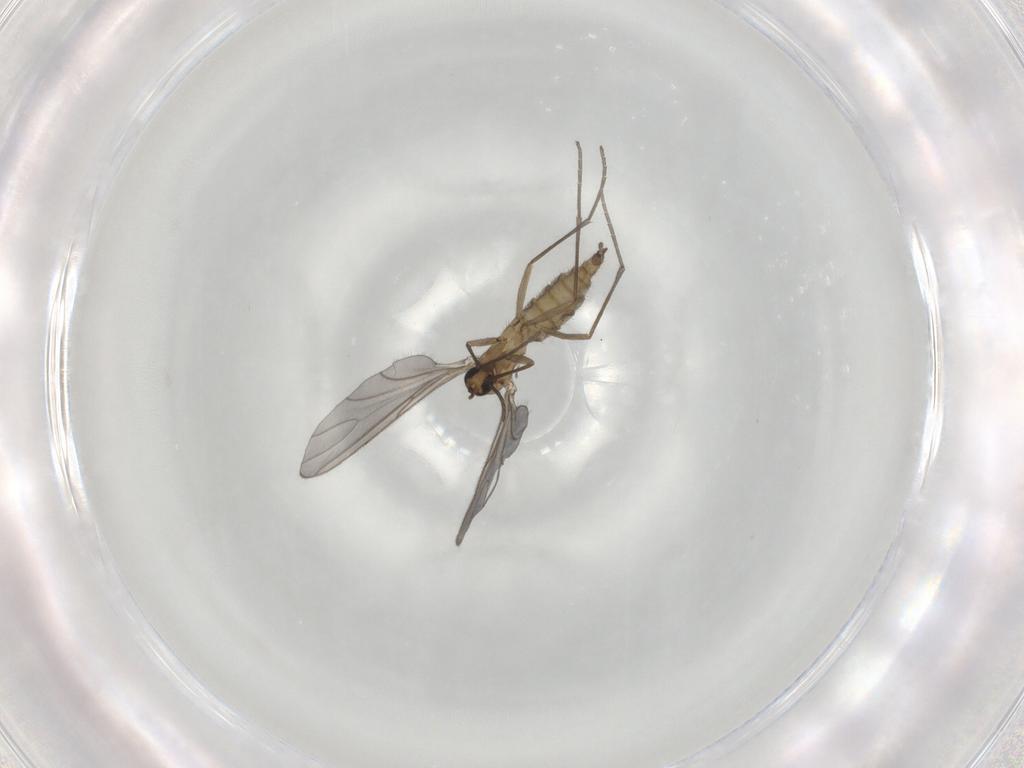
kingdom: Animalia
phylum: Arthropoda
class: Insecta
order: Diptera
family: Sciaridae
